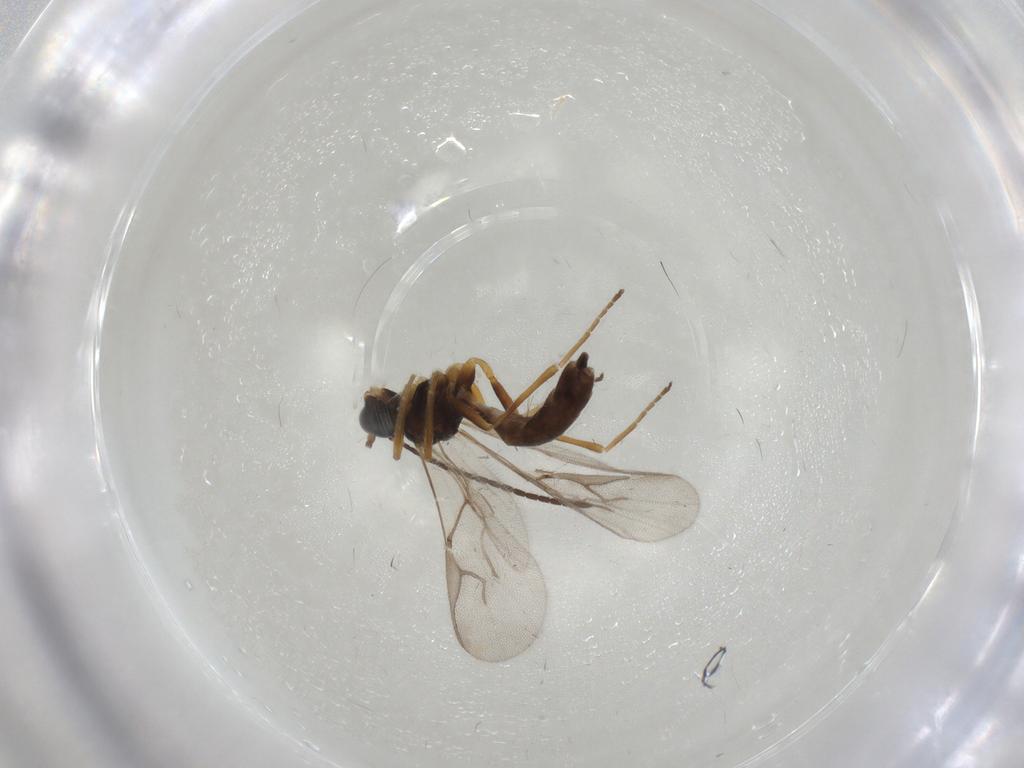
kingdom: Animalia
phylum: Arthropoda
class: Insecta
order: Hymenoptera
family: Braconidae
